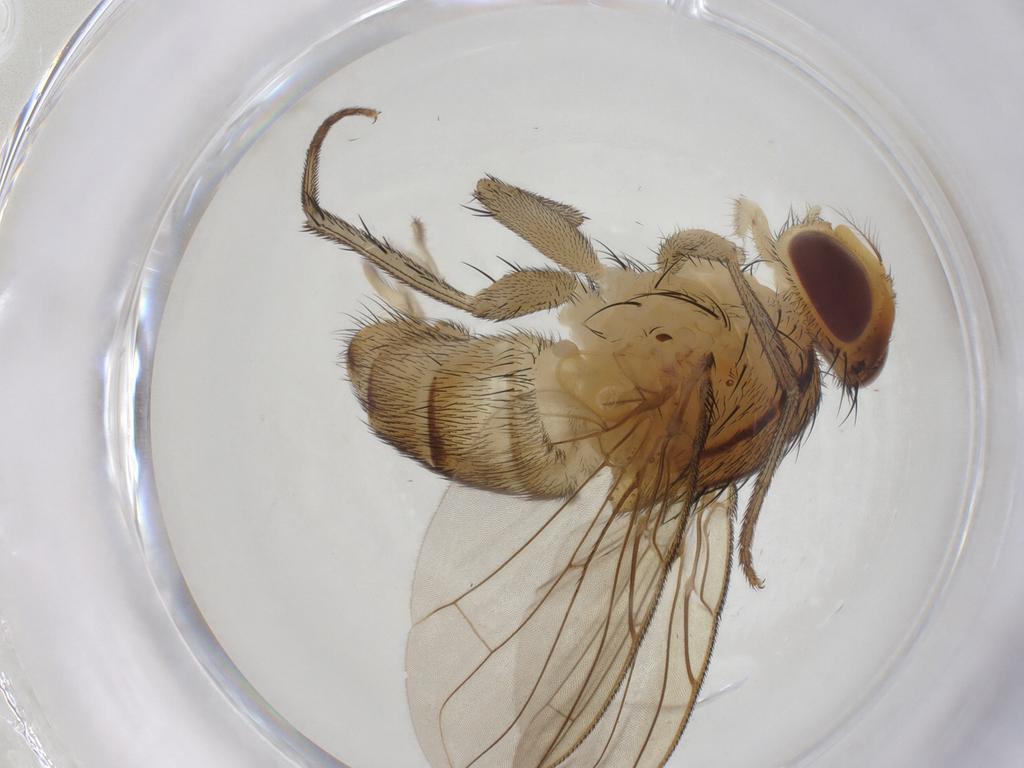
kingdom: Animalia
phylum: Arthropoda
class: Insecta
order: Diptera
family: Calliphoridae
